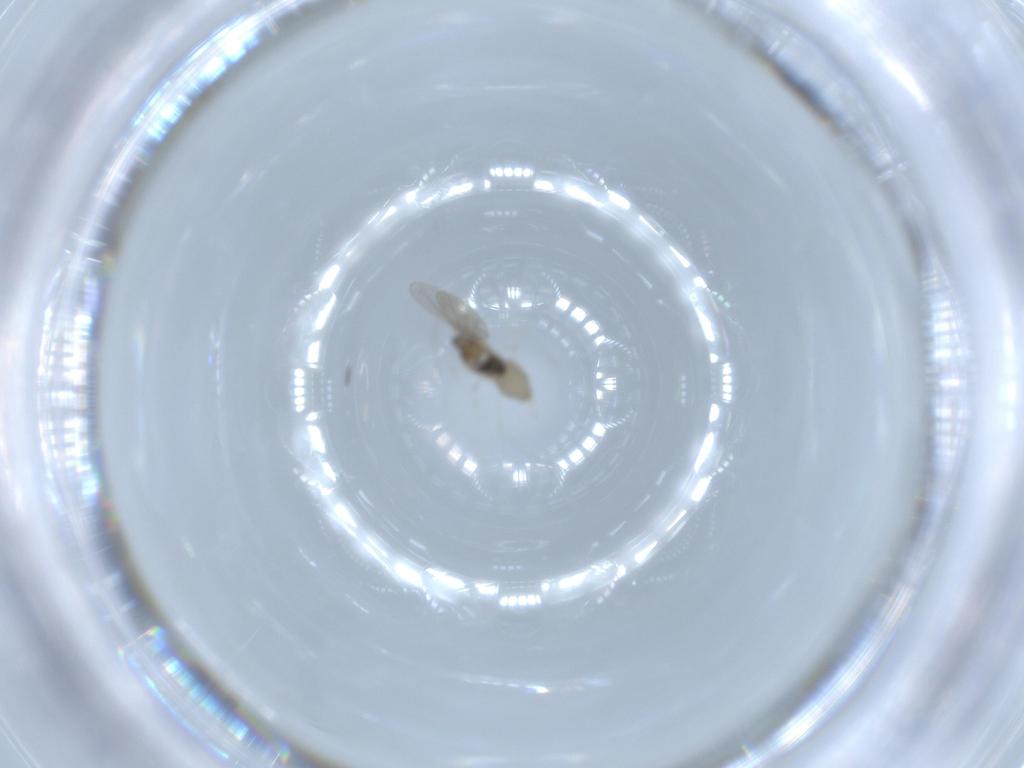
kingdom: Animalia
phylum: Arthropoda
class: Insecta
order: Diptera
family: Cecidomyiidae
